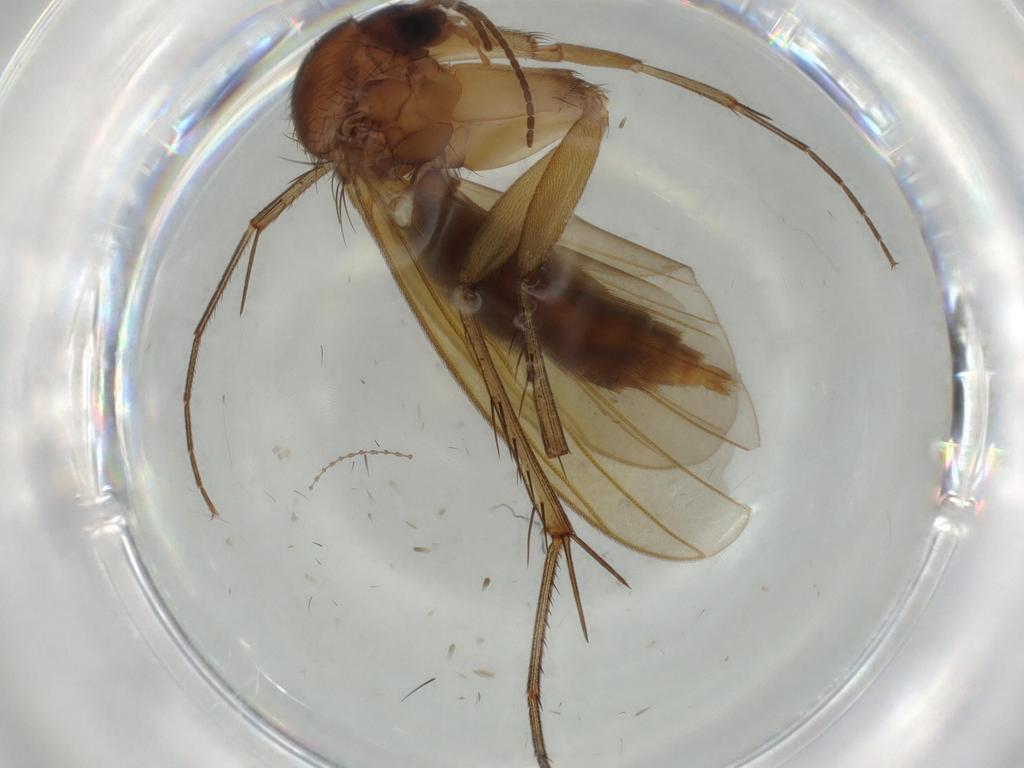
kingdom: Animalia
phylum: Arthropoda
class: Insecta
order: Diptera
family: Mycetophilidae
